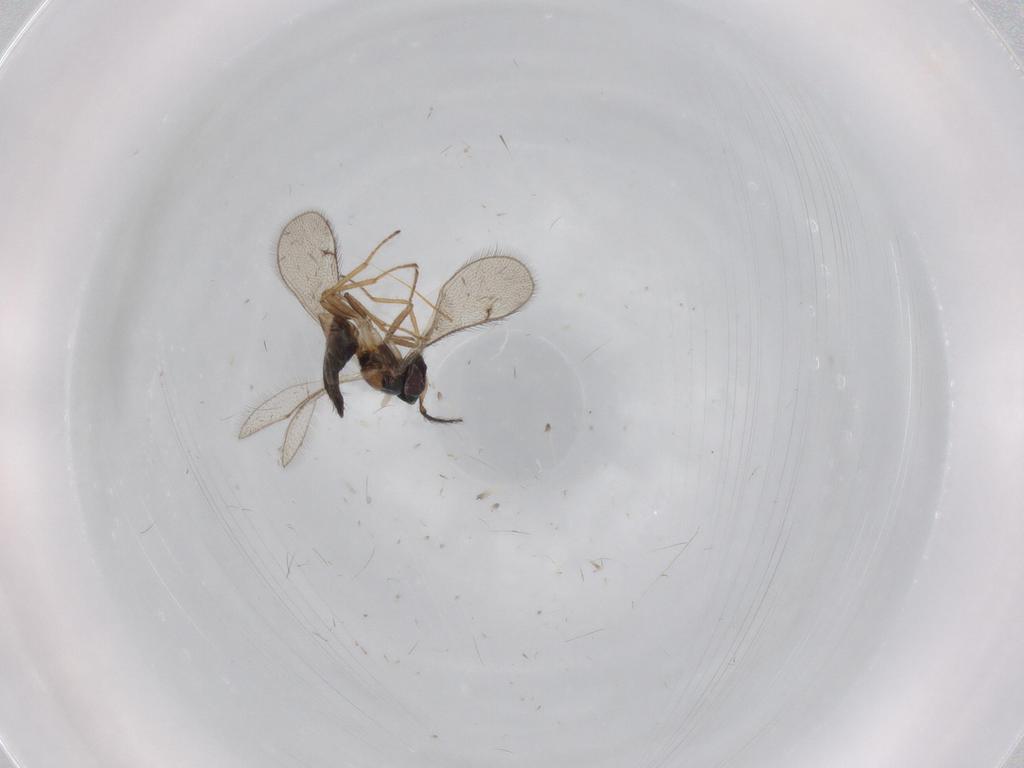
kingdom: Animalia
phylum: Arthropoda
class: Insecta
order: Hymenoptera
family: Eulophidae
